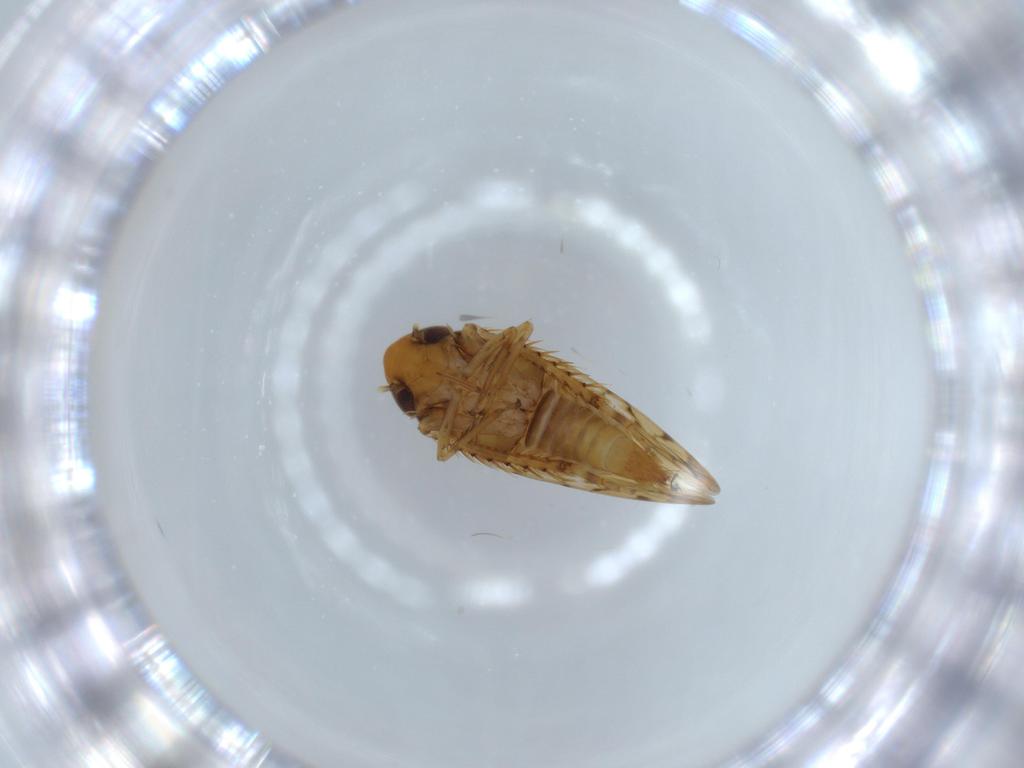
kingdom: Animalia
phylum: Arthropoda
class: Insecta
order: Hemiptera
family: Cicadellidae
